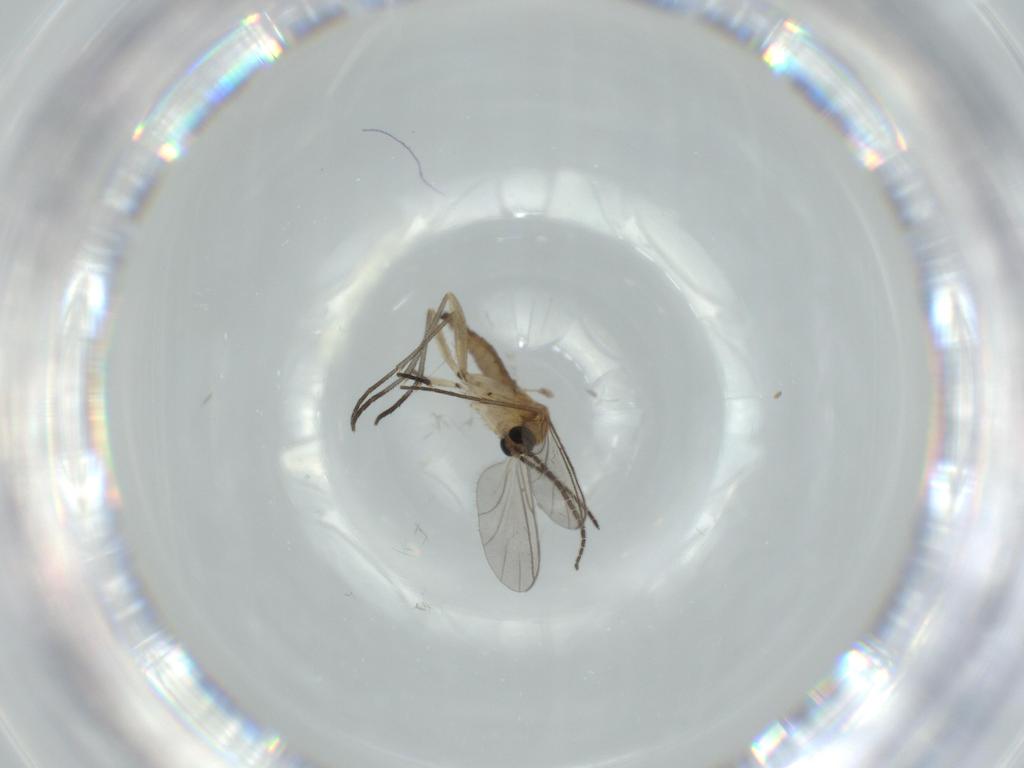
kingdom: Animalia
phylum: Arthropoda
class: Insecta
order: Diptera
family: Sciaridae
